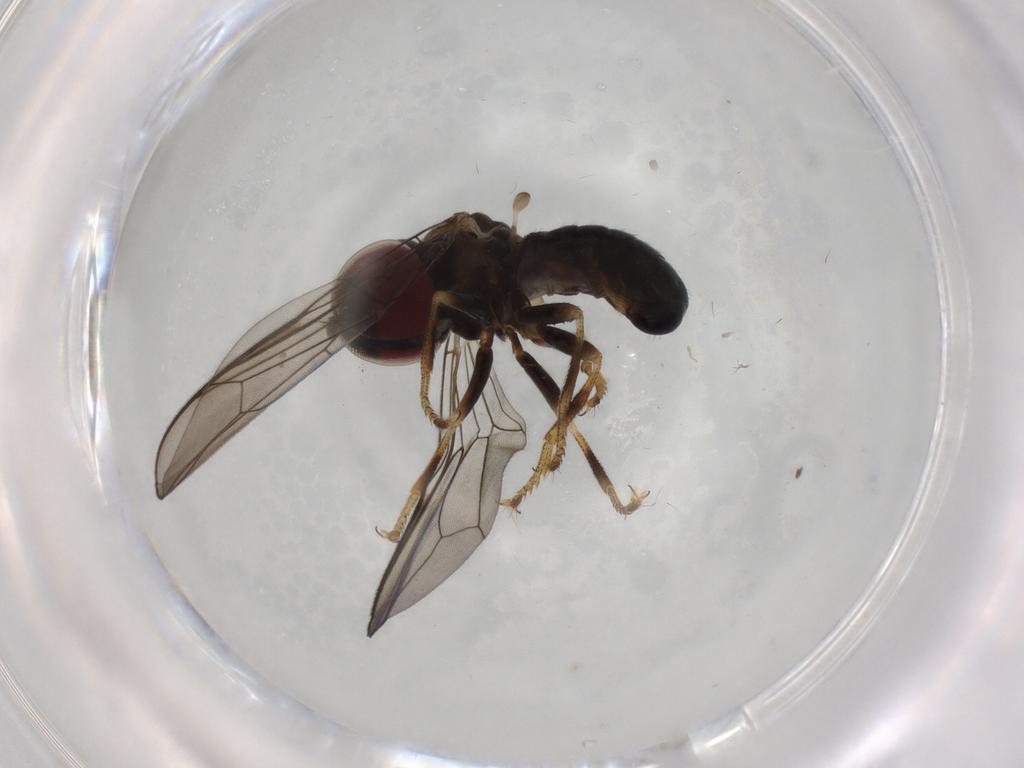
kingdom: Animalia
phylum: Arthropoda
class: Insecta
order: Diptera
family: Pipunculidae
